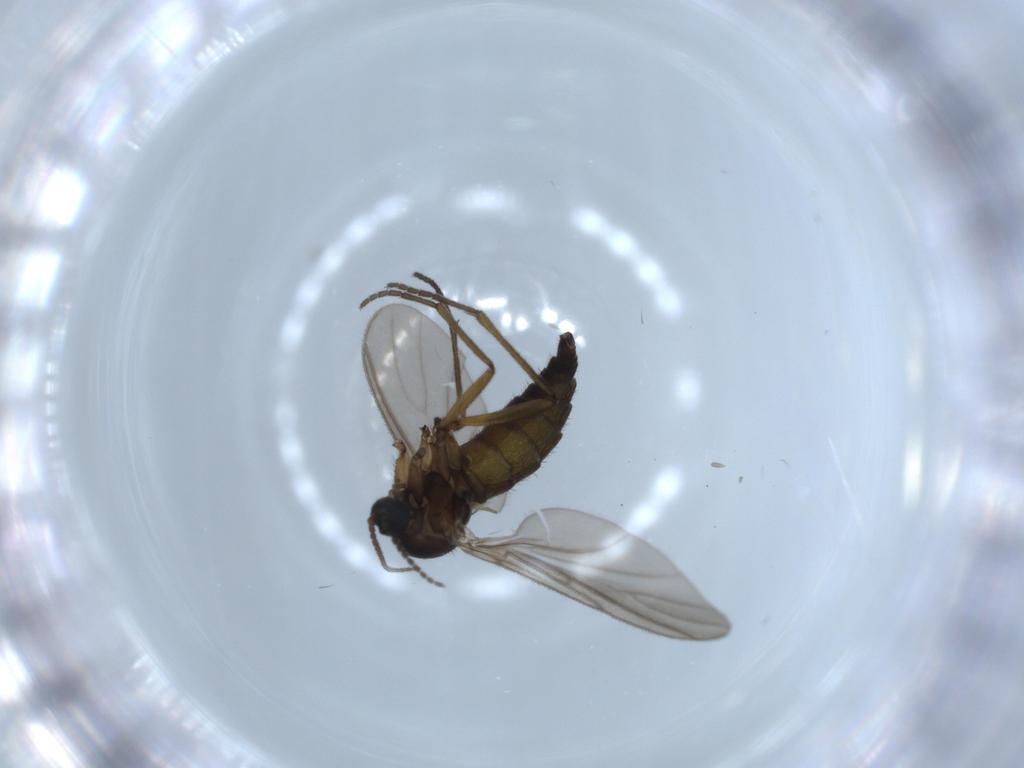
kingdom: Animalia
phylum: Arthropoda
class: Insecta
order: Diptera
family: Sciaridae
